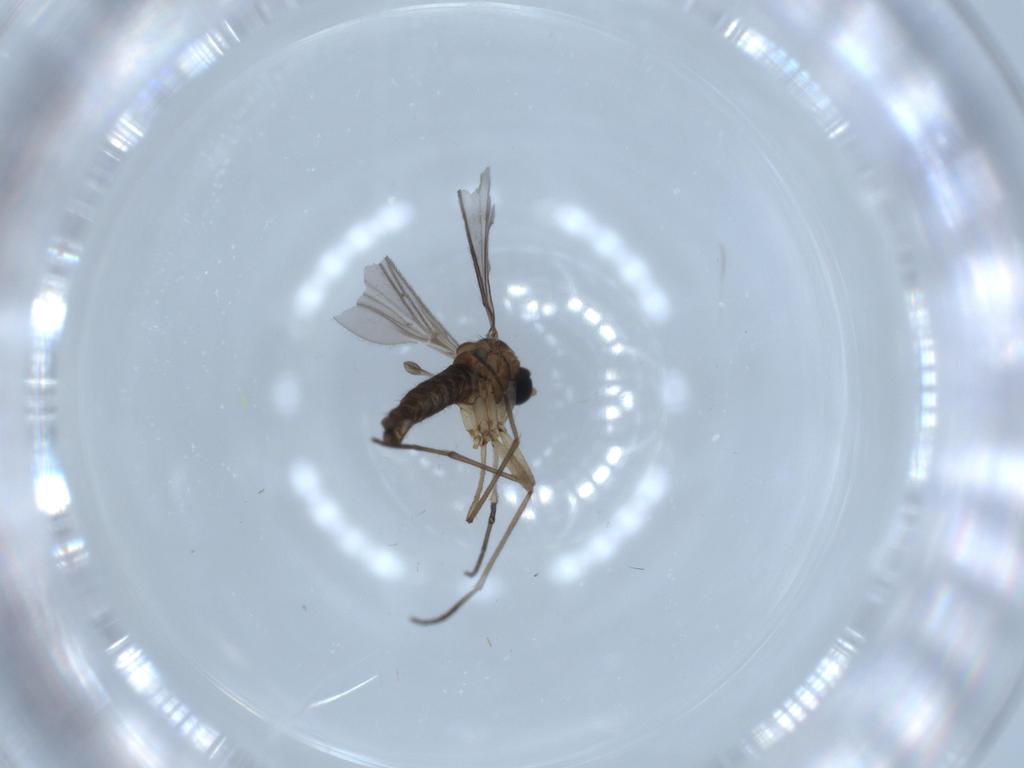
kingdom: Animalia
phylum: Arthropoda
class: Insecta
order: Diptera
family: Sciaridae
